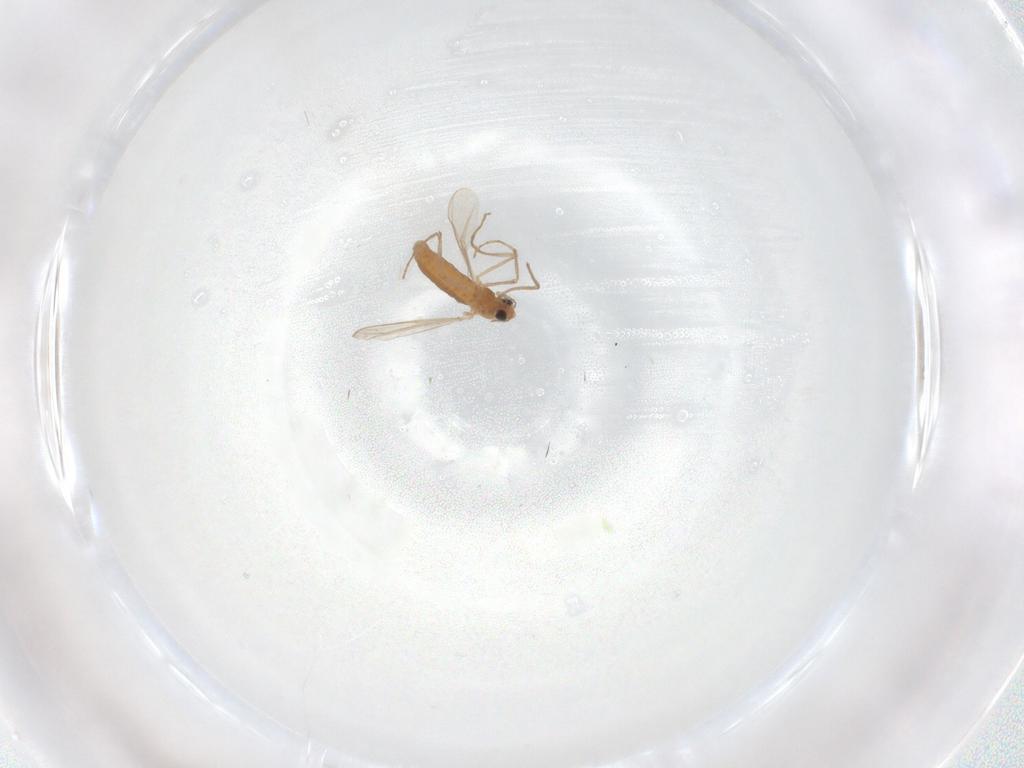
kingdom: Animalia
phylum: Arthropoda
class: Insecta
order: Diptera
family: Chironomidae
